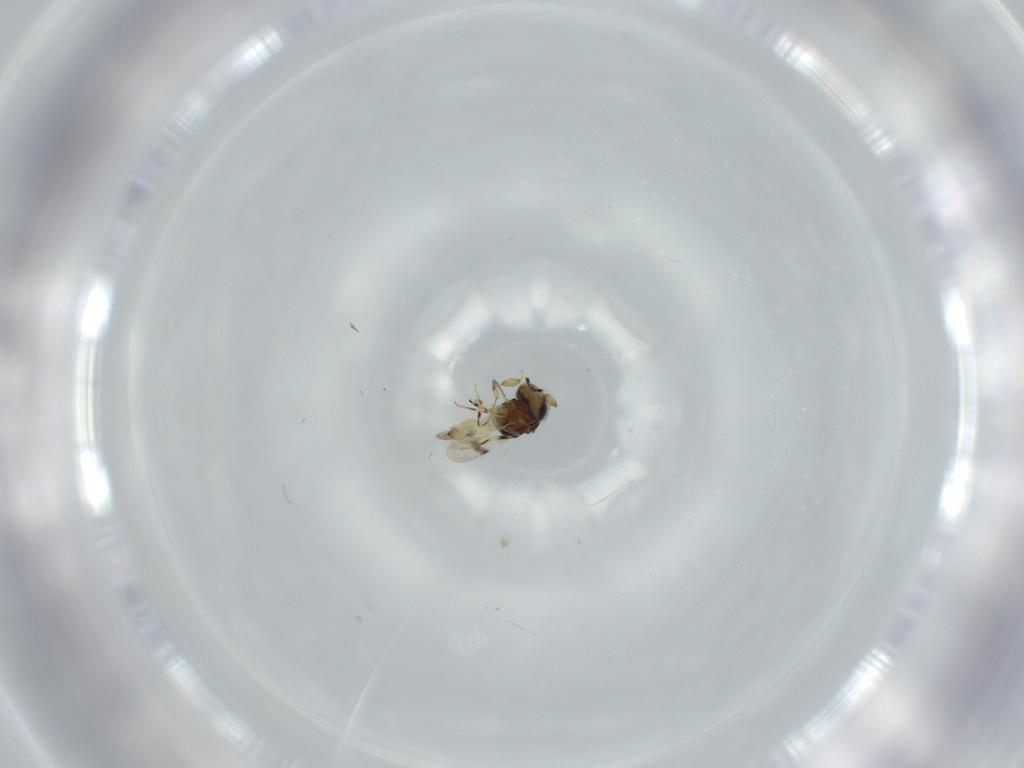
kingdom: Animalia
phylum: Arthropoda
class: Insecta
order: Hymenoptera
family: Scelionidae
